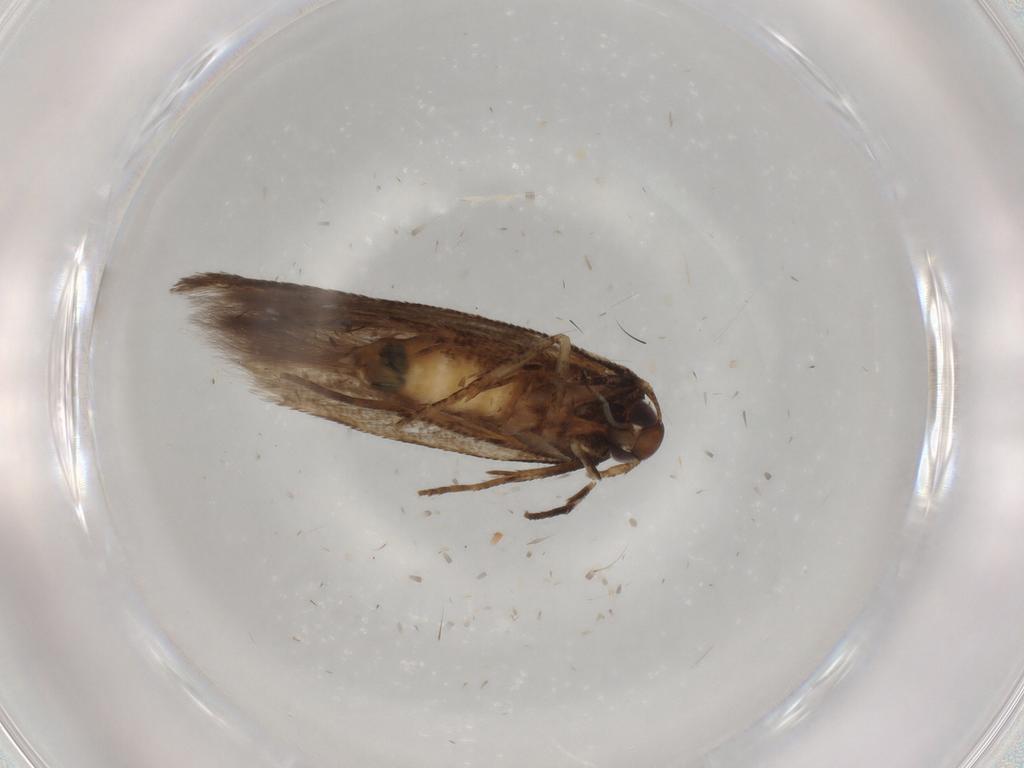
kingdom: Animalia
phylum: Arthropoda
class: Insecta
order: Lepidoptera
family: Cosmopterigidae
